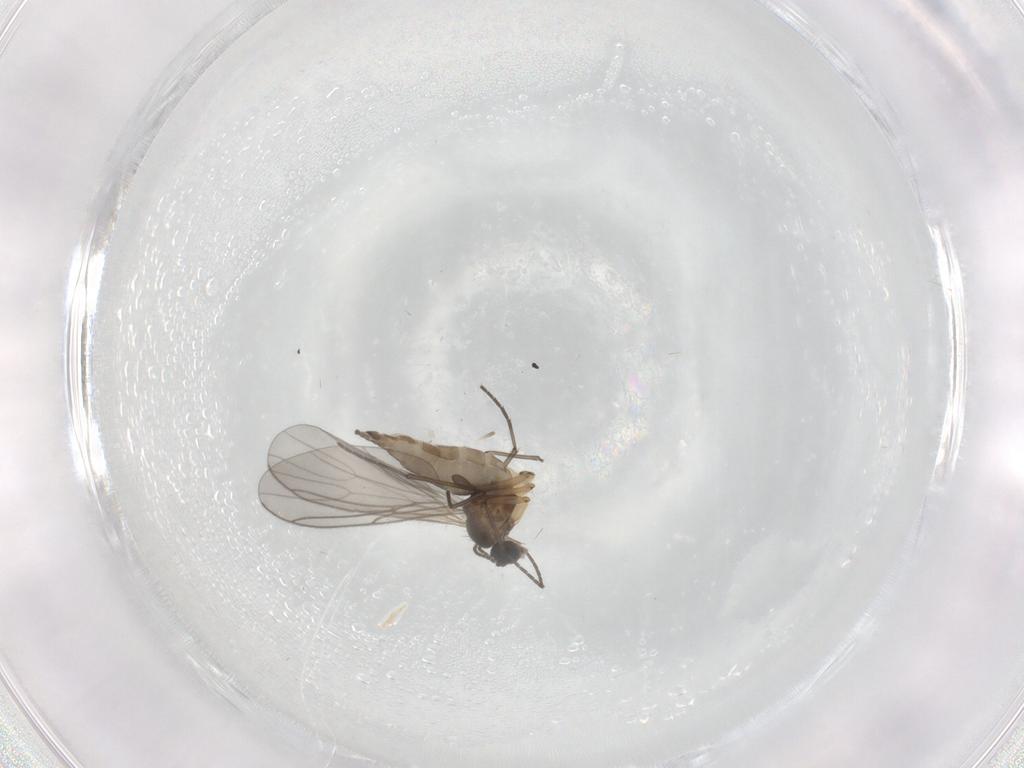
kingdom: Animalia
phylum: Arthropoda
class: Insecta
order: Diptera
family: Sciaridae
